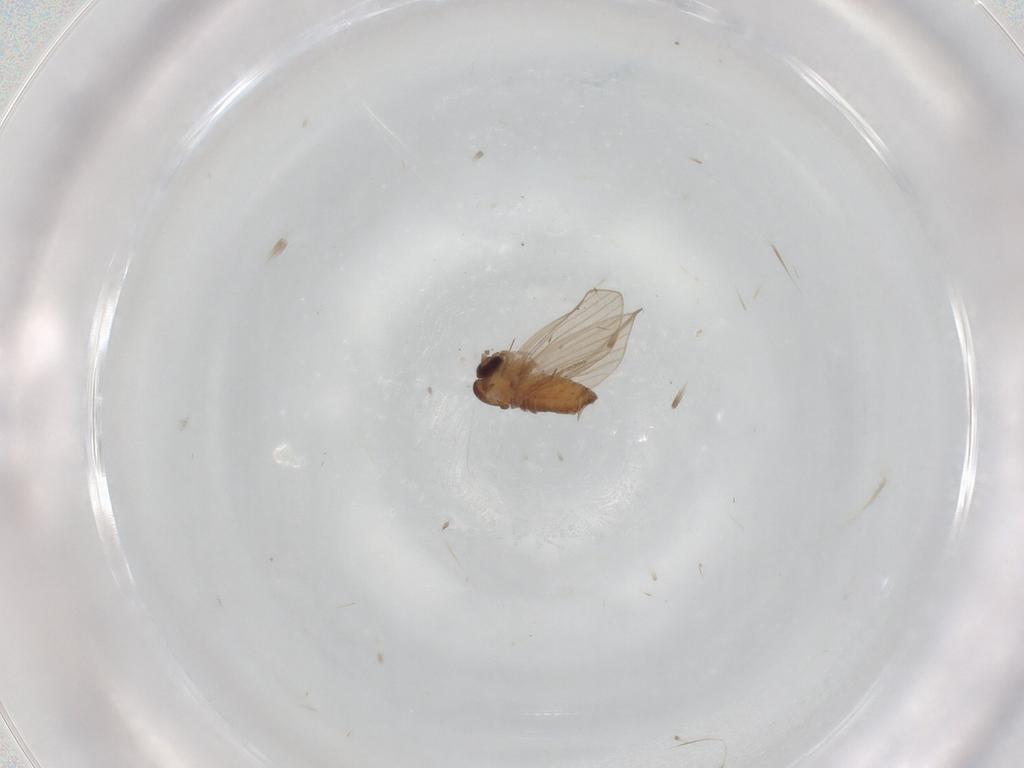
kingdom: Animalia
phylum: Arthropoda
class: Insecta
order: Diptera
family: Psychodidae
